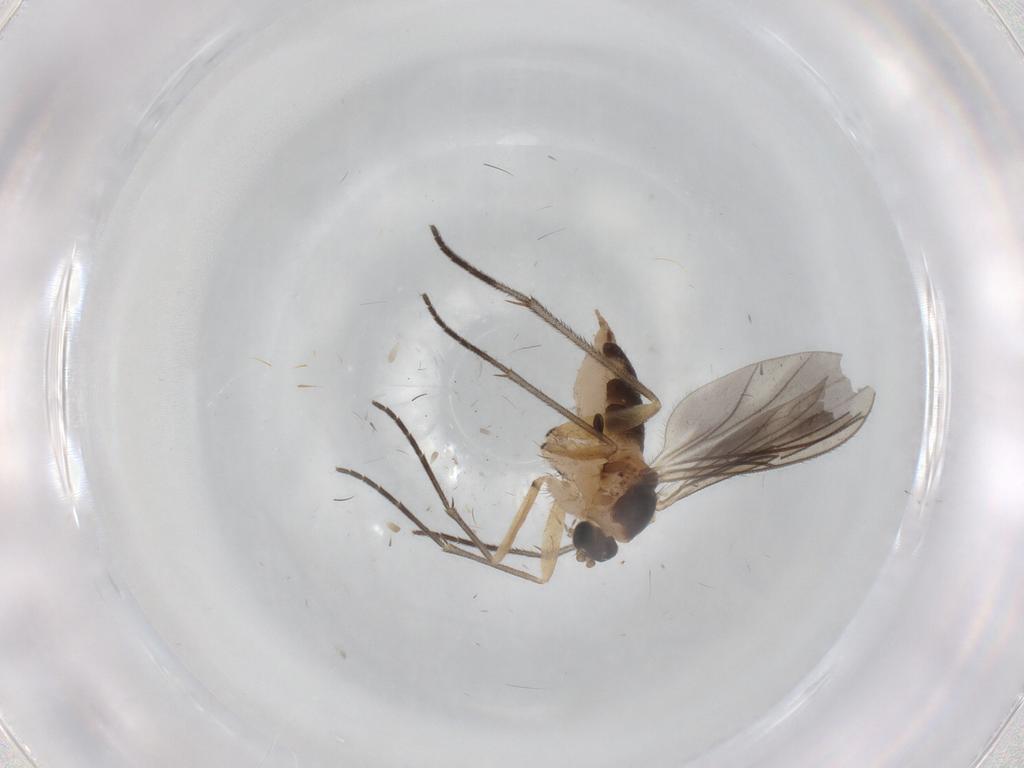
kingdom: Animalia
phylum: Arthropoda
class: Insecta
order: Diptera
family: Sciaridae
